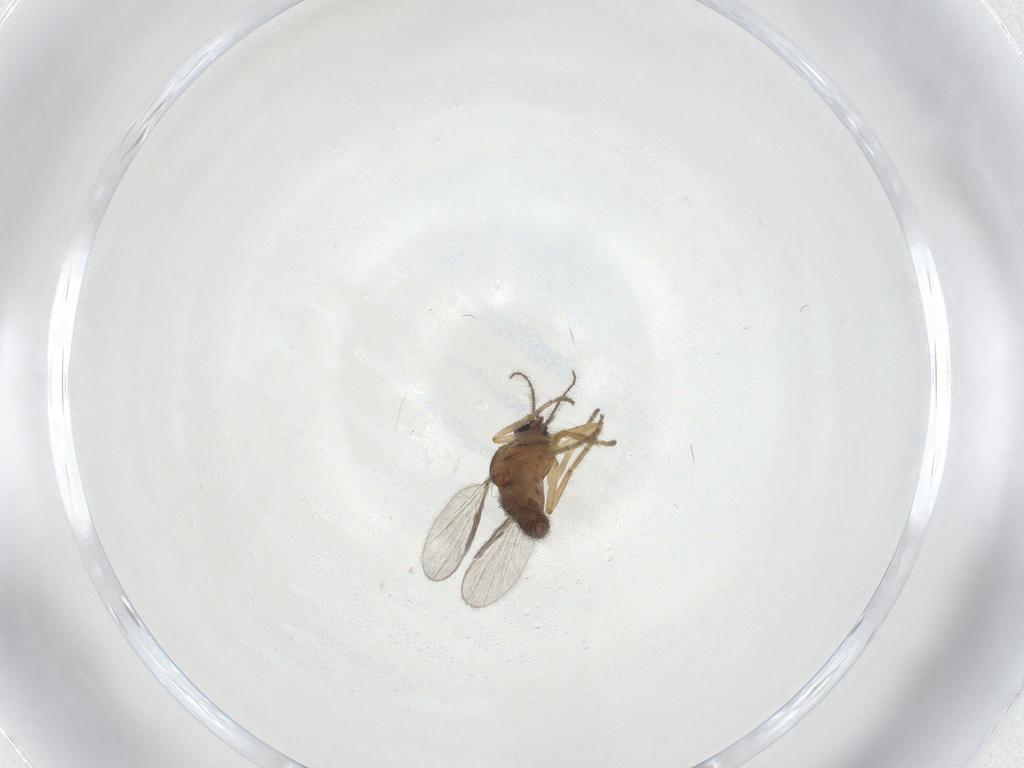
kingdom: Animalia
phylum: Arthropoda
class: Insecta
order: Diptera
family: Ceratopogonidae
